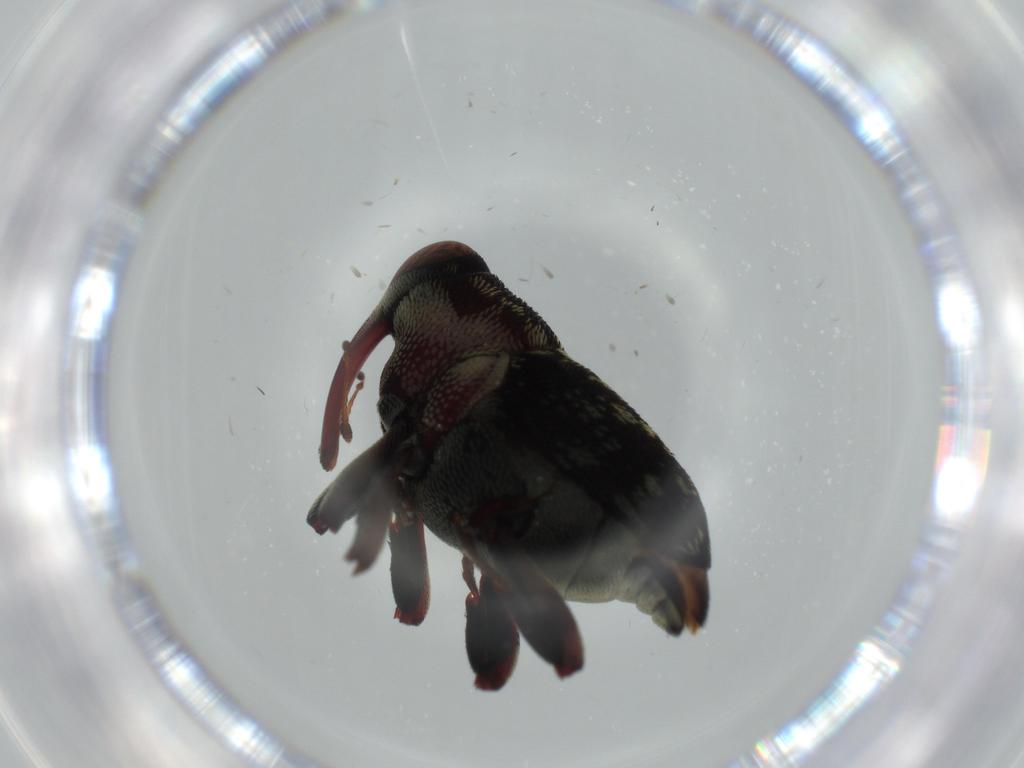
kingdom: Animalia
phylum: Arthropoda
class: Insecta
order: Coleoptera
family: Curculionidae
